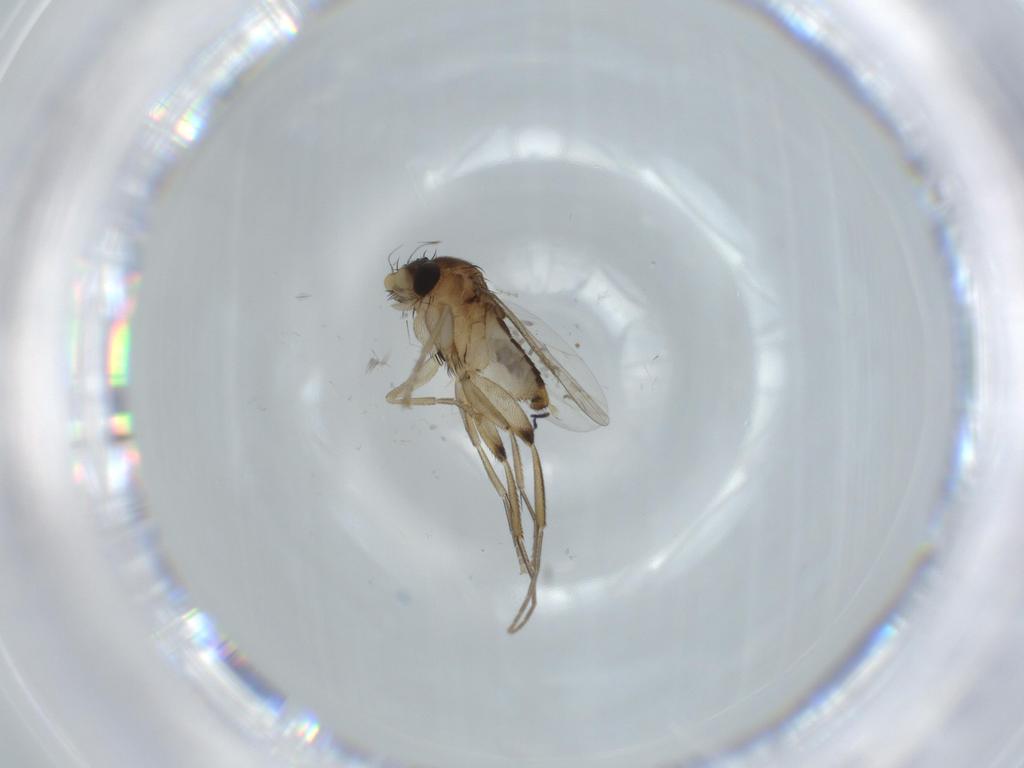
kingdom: Animalia
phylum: Arthropoda
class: Insecta
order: Diptera
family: Phoridae
